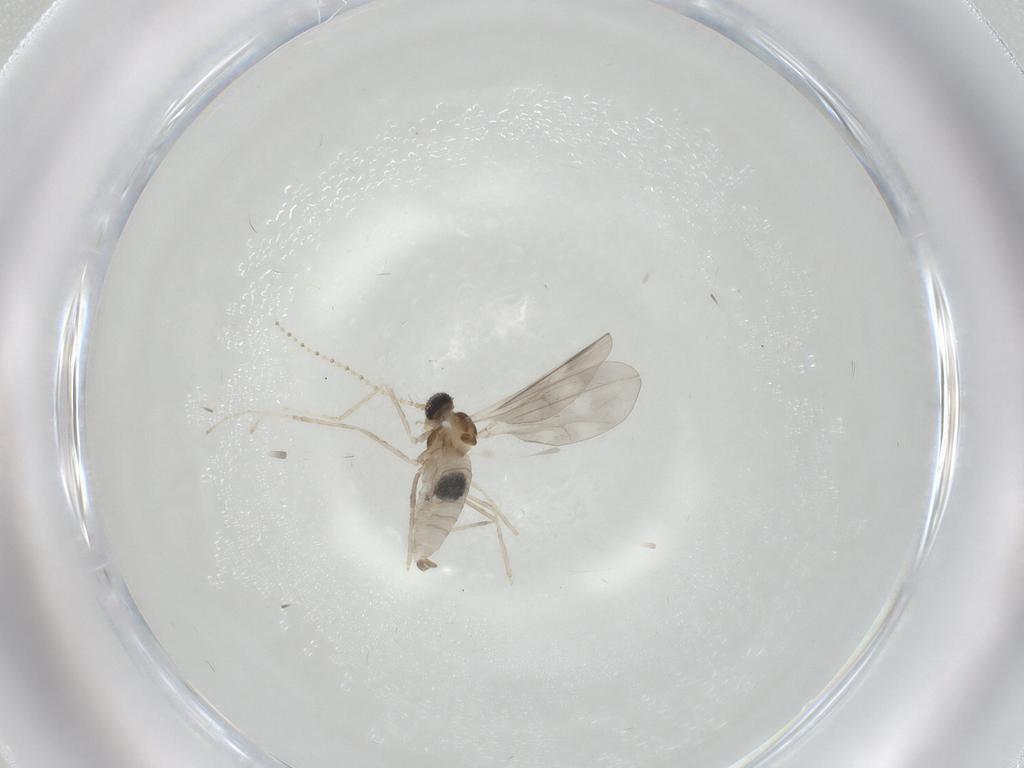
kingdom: Animalia
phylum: Arthropoda
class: Insecta
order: Diptera
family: Cecidomyiidae
